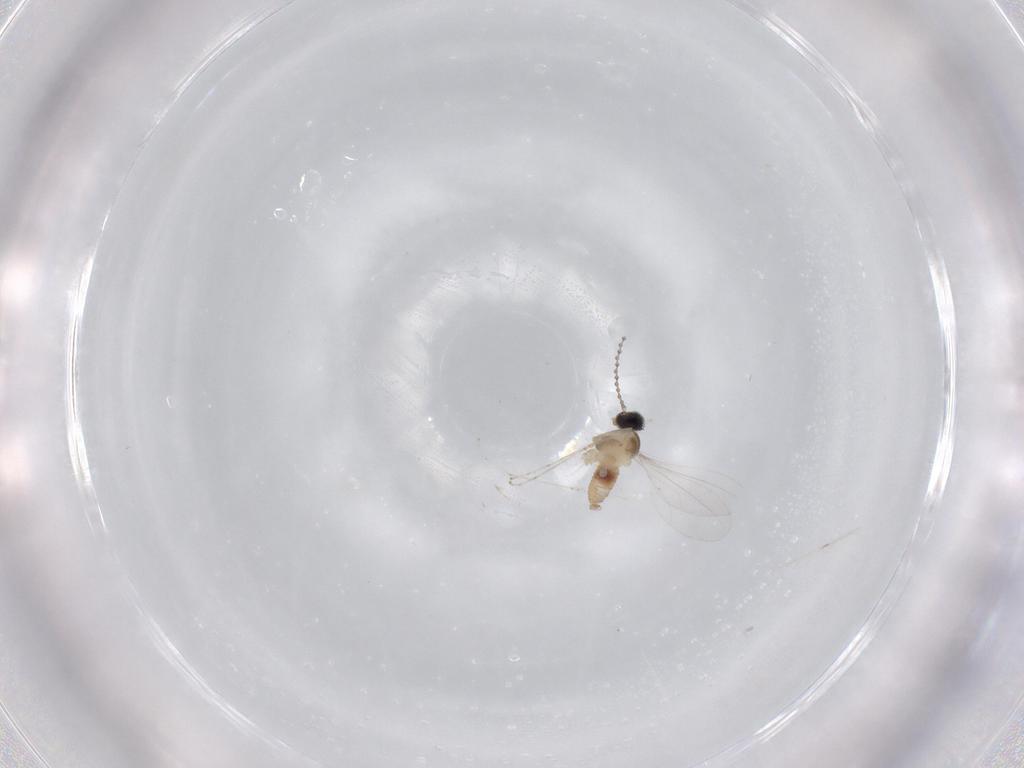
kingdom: Animalia
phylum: Arthropoda
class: Insecta
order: Diptera
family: Cecidomyiidae
